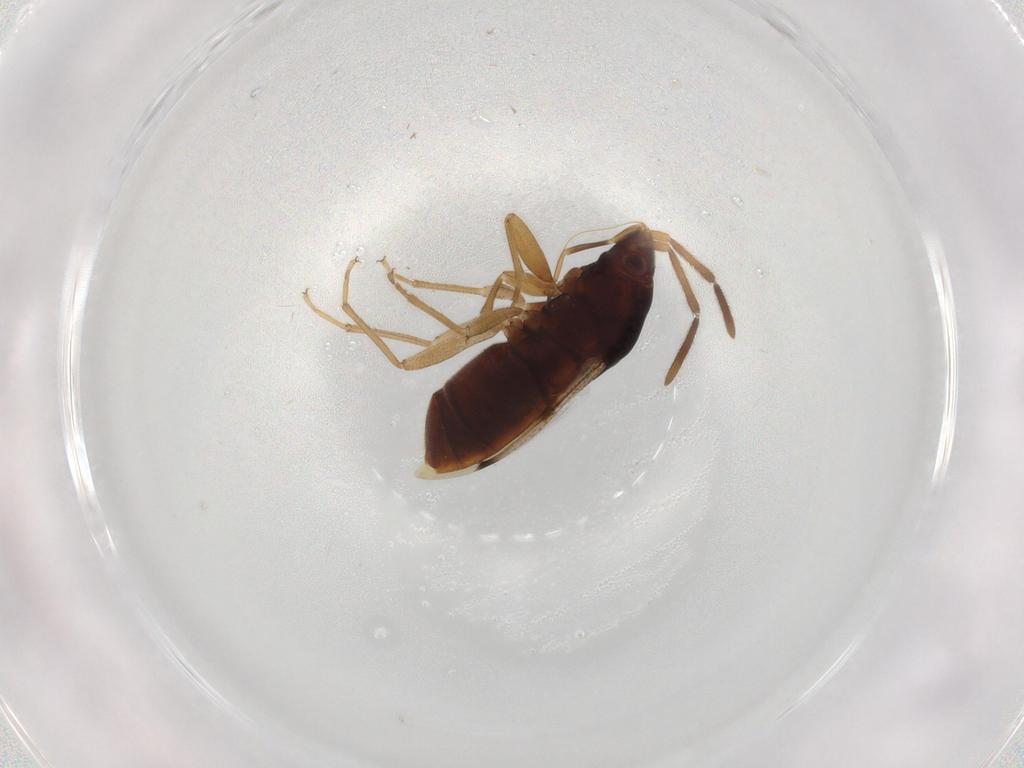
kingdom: Animalia
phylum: Arthropoda
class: Insecta
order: Hemiptera
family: Rhyparochromidae
